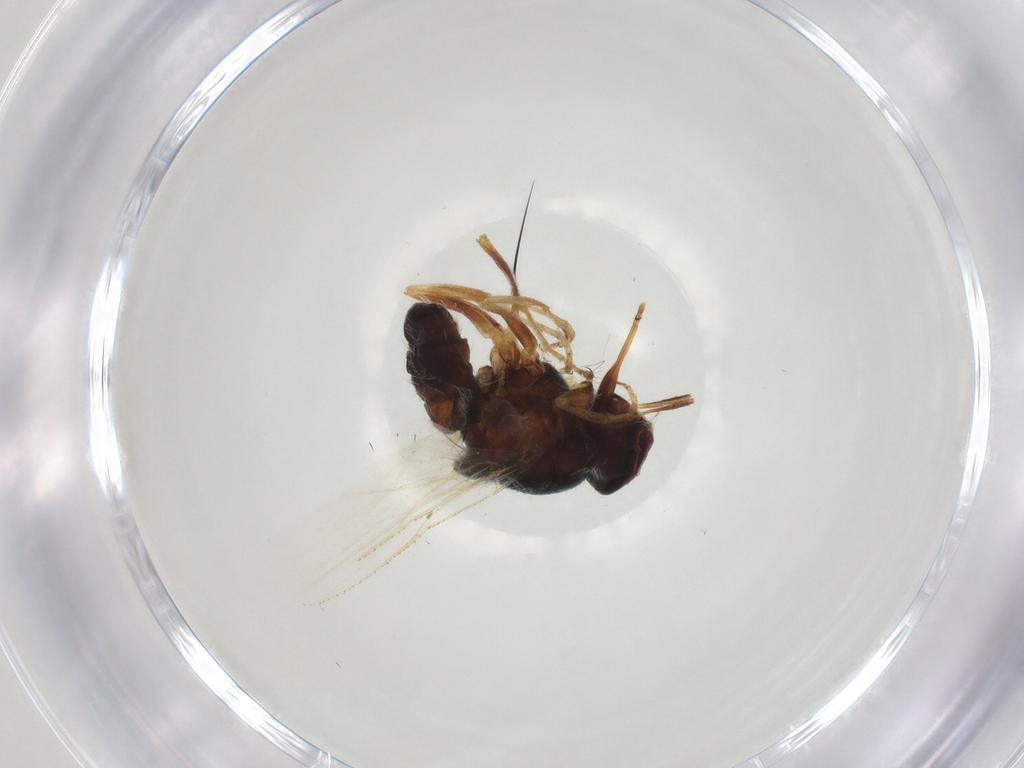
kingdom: Animalia
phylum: Arthropoda
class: Insecta
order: Diptera
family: Muscidae
